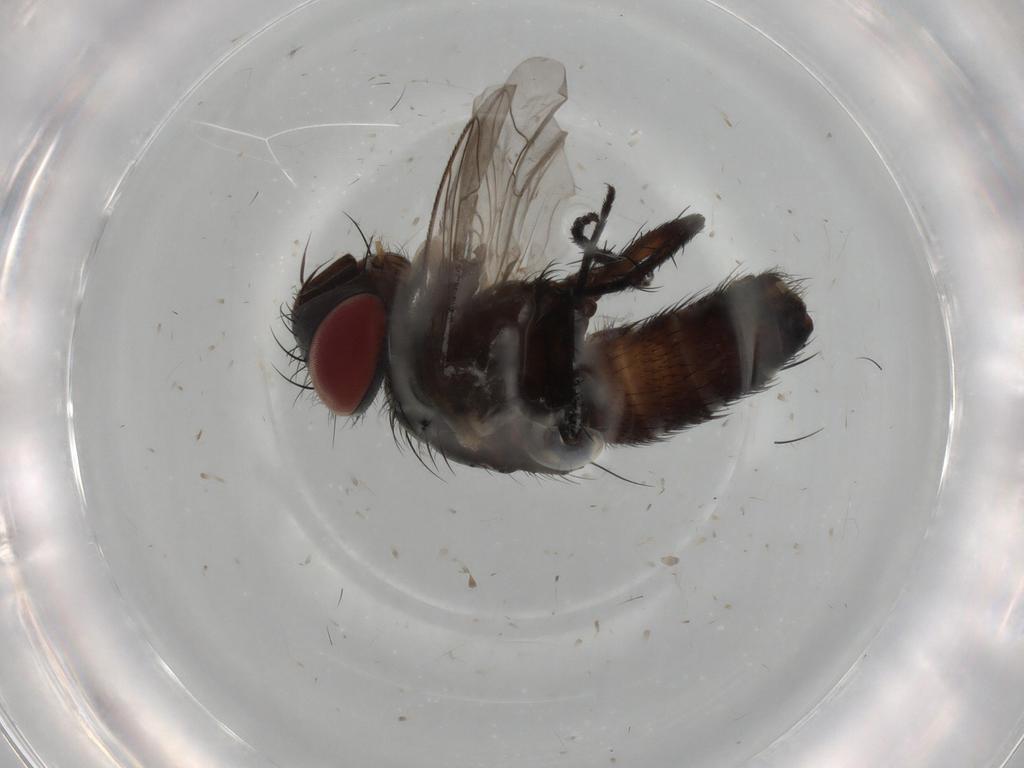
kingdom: Animalia
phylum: Arthropoda
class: Insecta
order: Diptera
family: Sarcophagidae
